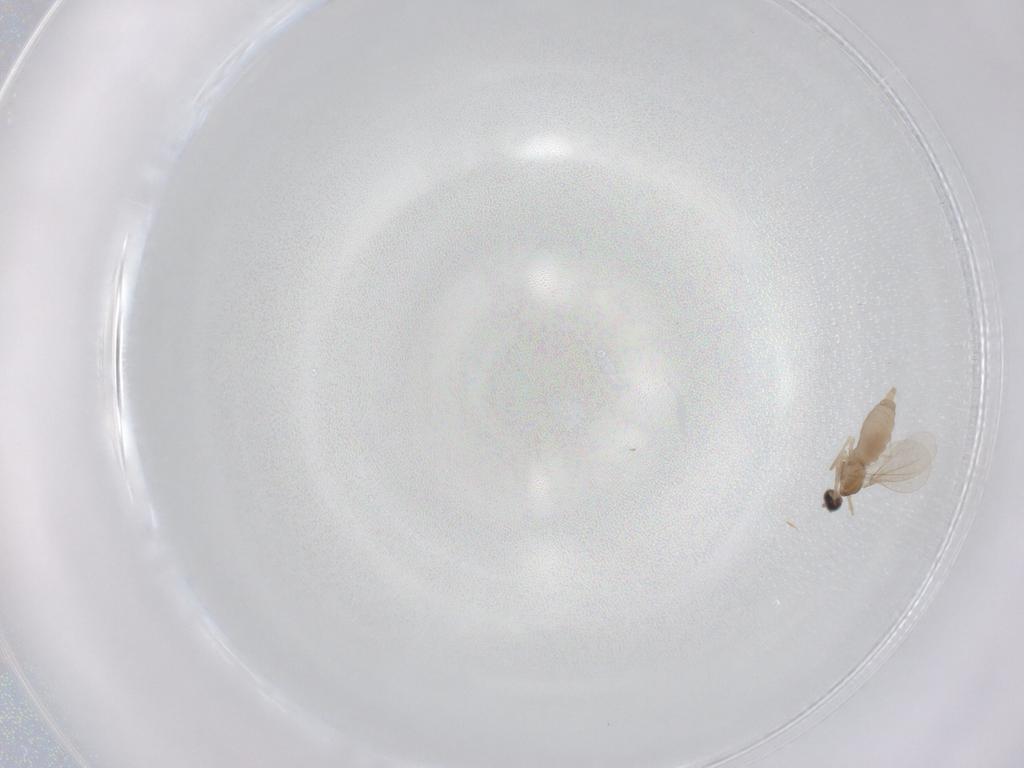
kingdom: Animalia
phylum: Arthropoda
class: Insecta
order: Diptera
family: Cecidomyiidae
